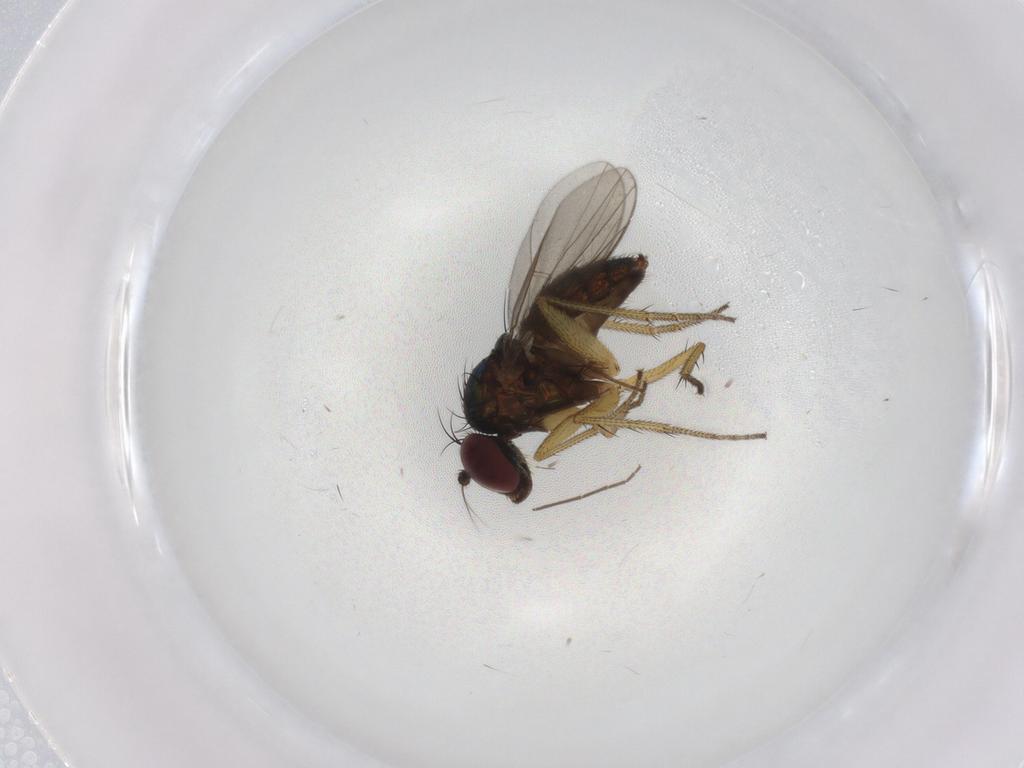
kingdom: Animalia
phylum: Arthropoda
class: Insecta
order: Diptera
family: Dolichopodidae
